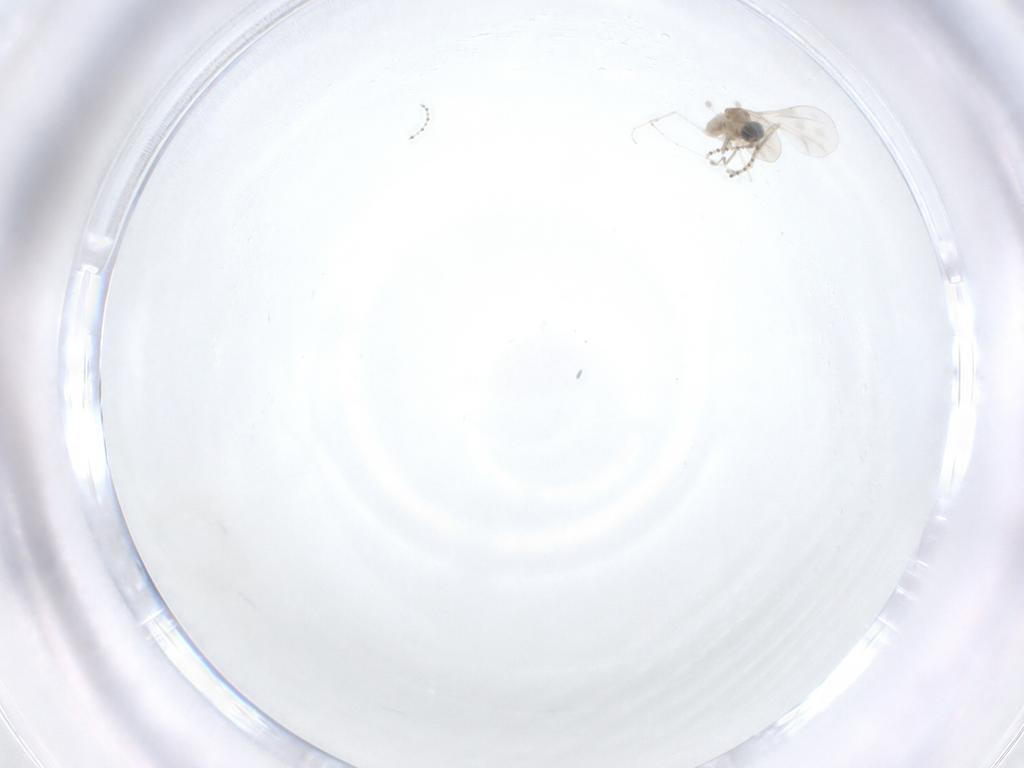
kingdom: Animalia
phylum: Arthropoda
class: Insecta
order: Diptera
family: Cecidomyiidae
